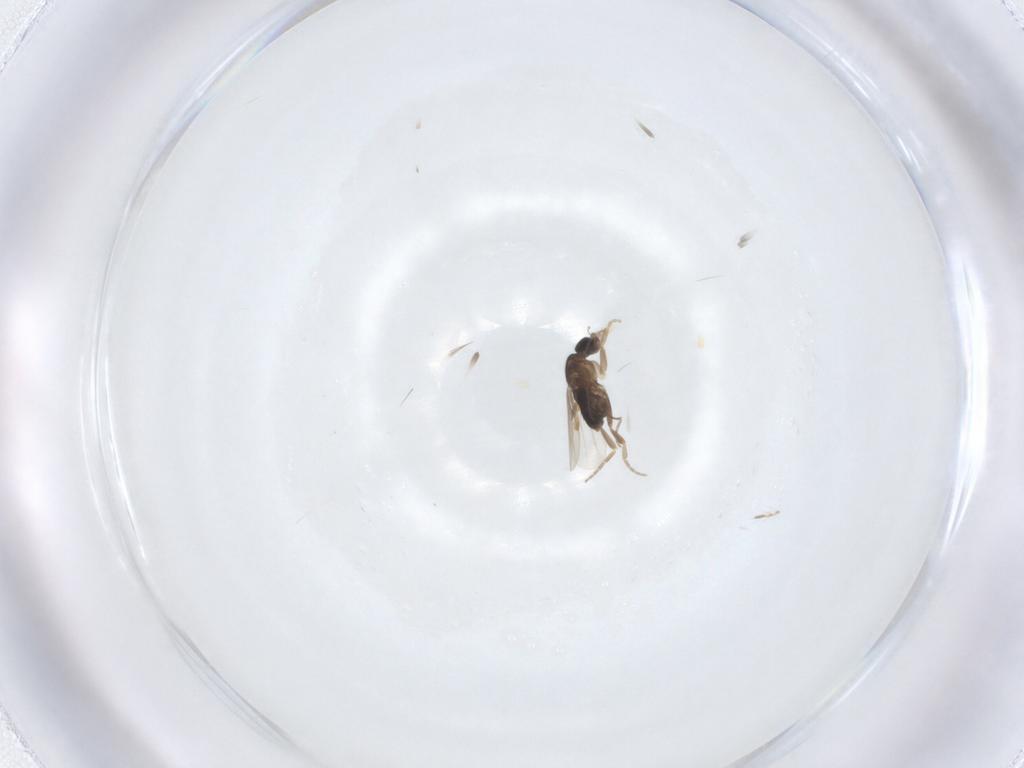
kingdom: Animalia
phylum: Arthropoda
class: Insecta
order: Diptera
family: Phoridae
